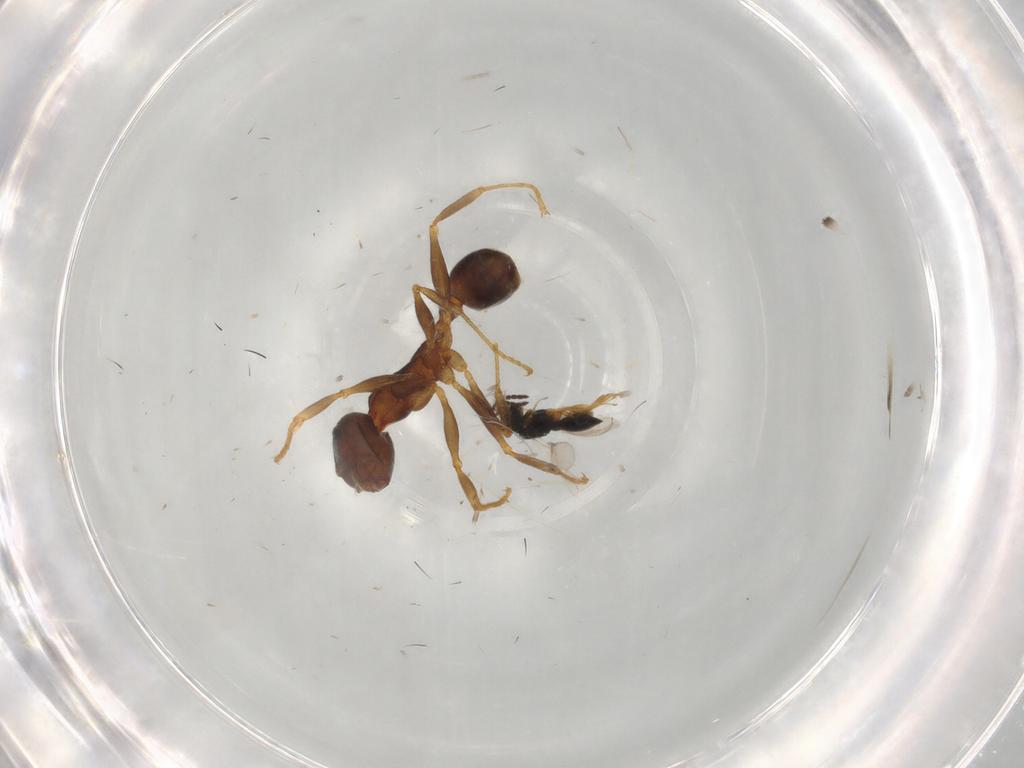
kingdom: Animalia
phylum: Arthropoda
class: Insecta
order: Hymenoptera
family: Scelionidae
